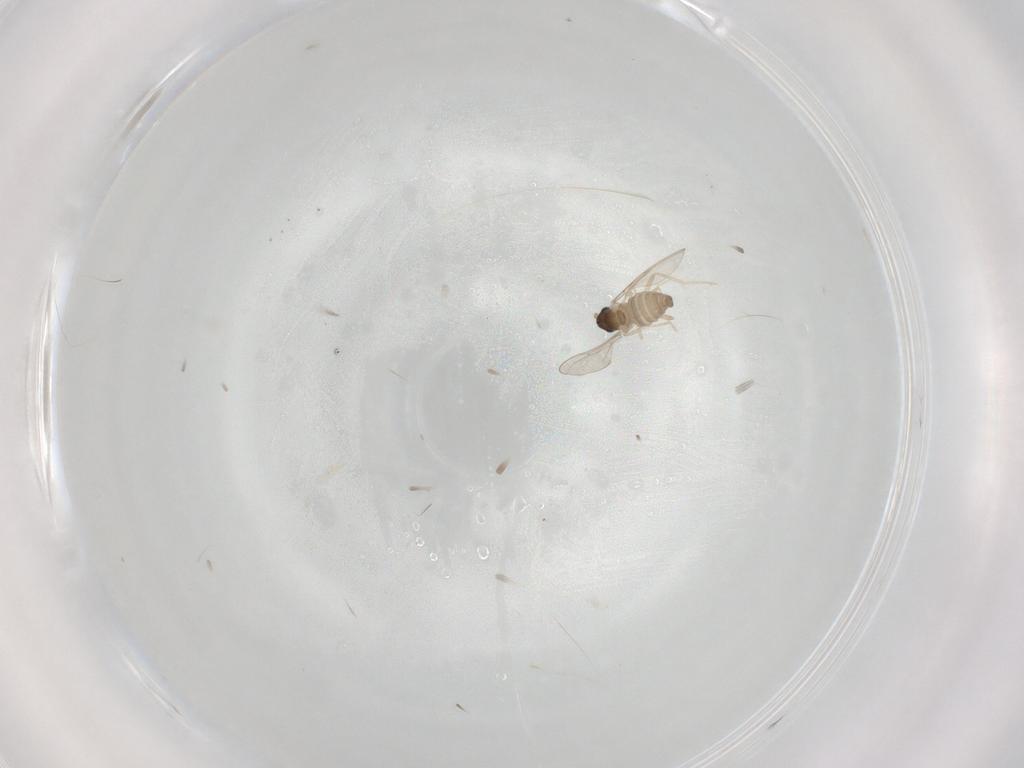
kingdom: Animalia
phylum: Arthropoda
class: Insecta
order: Diptera
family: Cecidomyiidae
